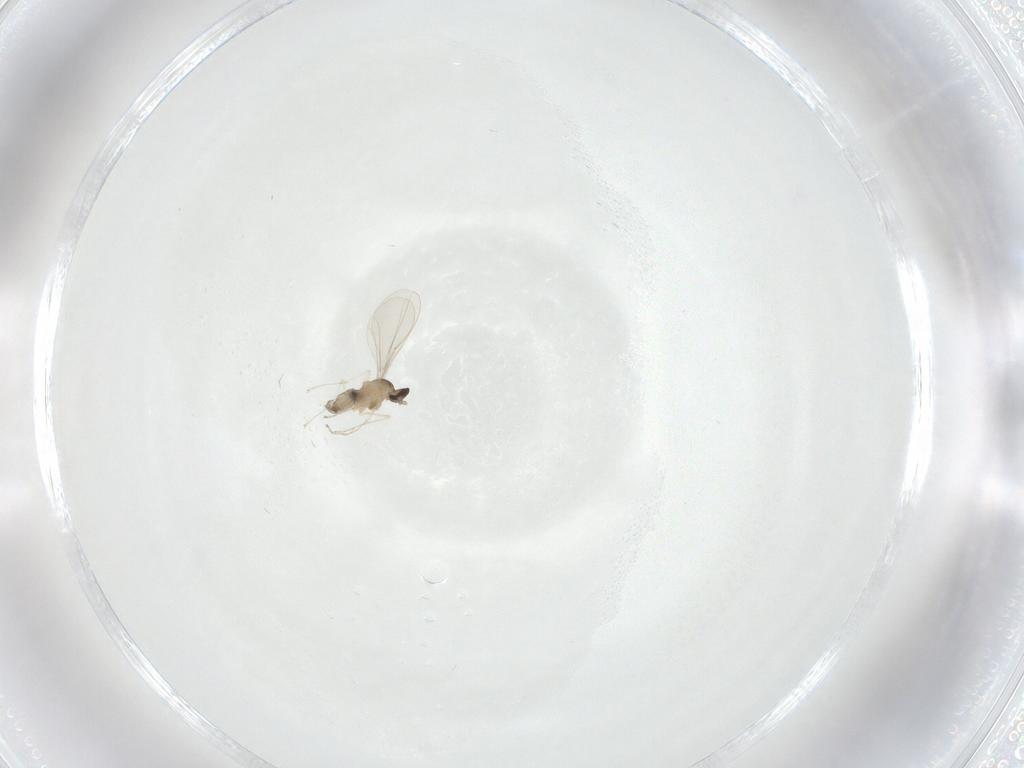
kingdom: Animalia
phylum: Arthropoda
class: Insecta
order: Diptera
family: Cecidomyiidae
